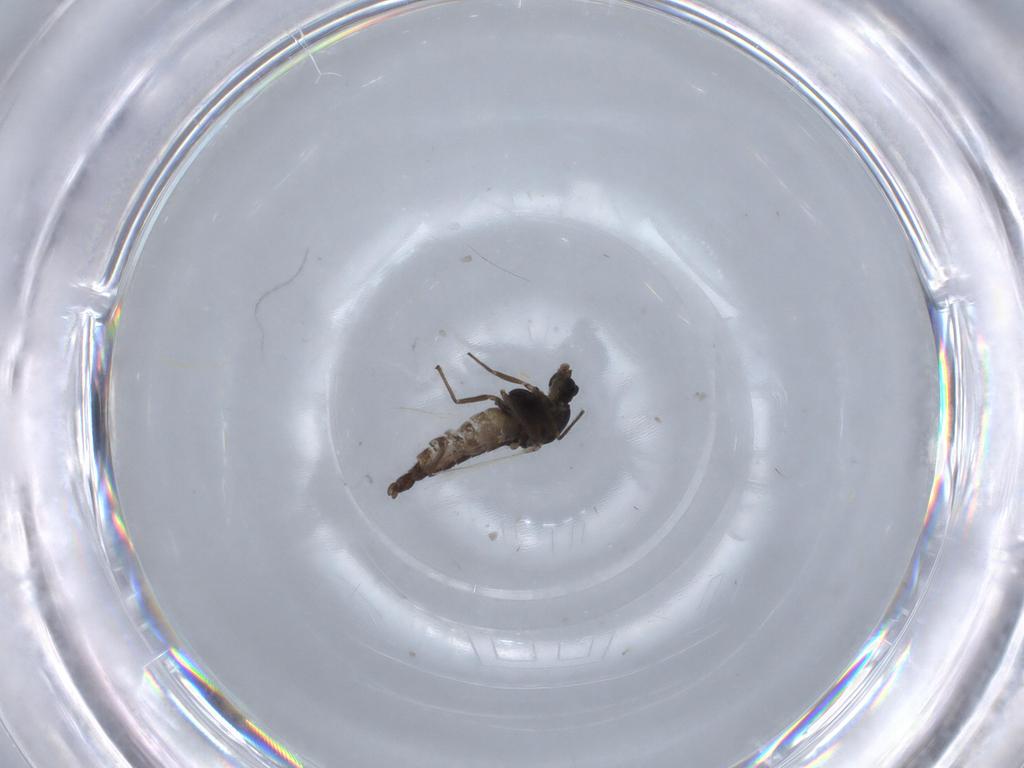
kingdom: Animalia
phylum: Arthropoda
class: Insecta
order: Diptera
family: Chironomidae
